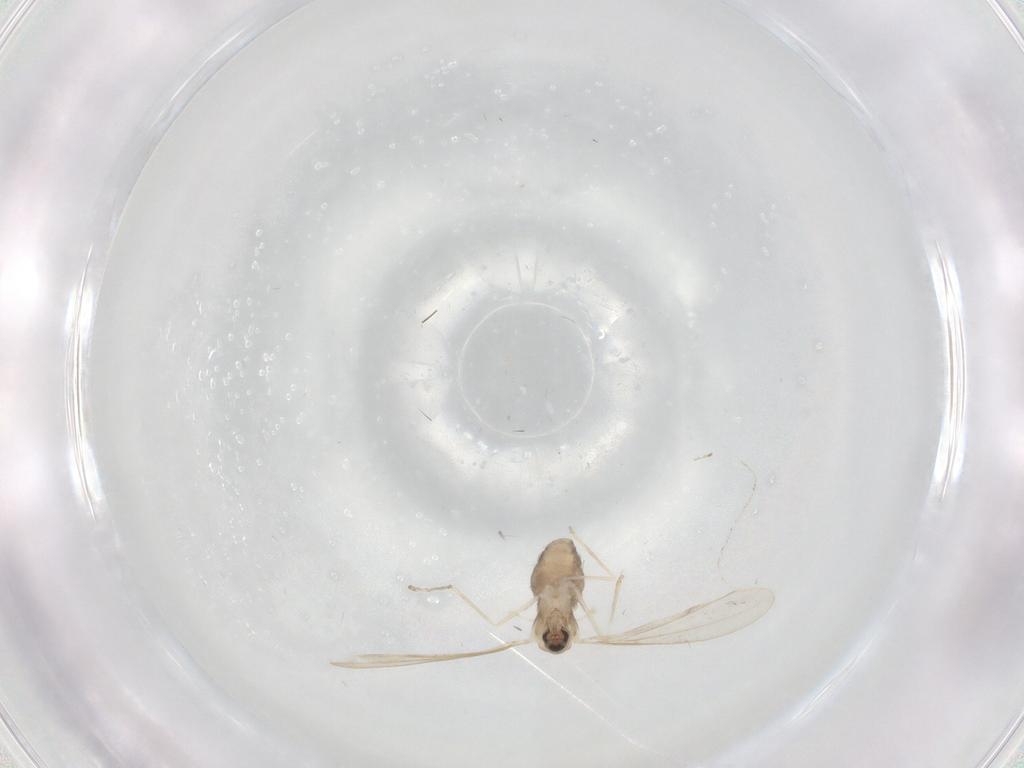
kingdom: Animalia
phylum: Arthropoda
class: Insecta
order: Diptera
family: Cecidomyiidae
